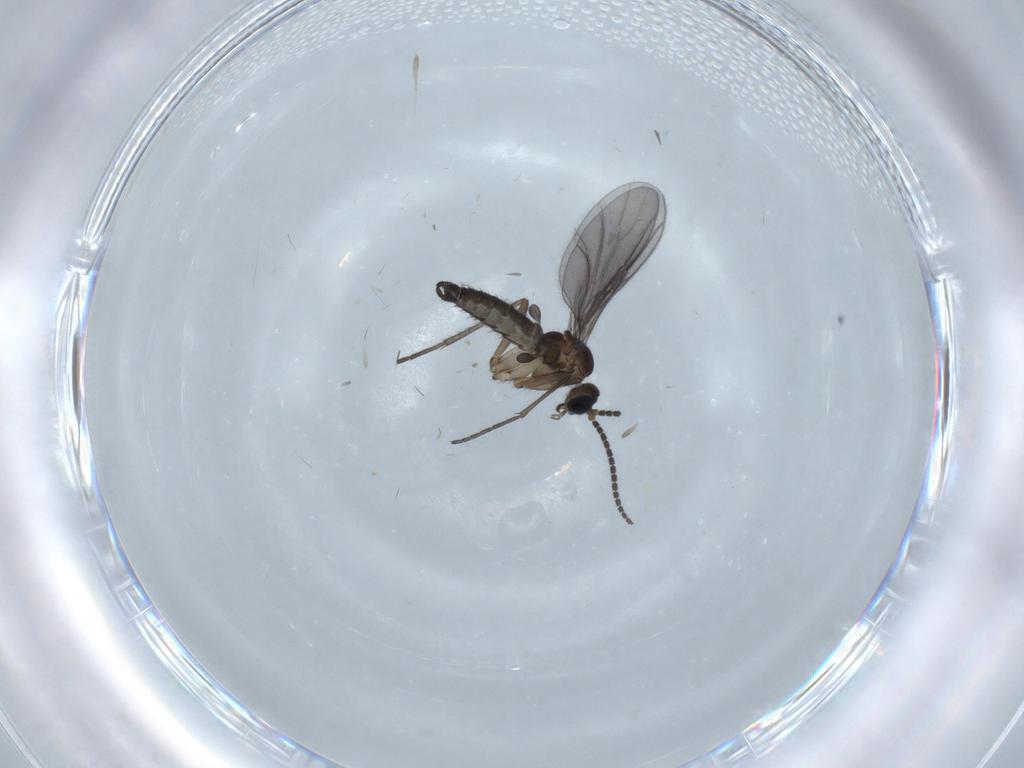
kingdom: Animalia
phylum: Arthropoda
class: Insecta
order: Diptera
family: Sciaridae
